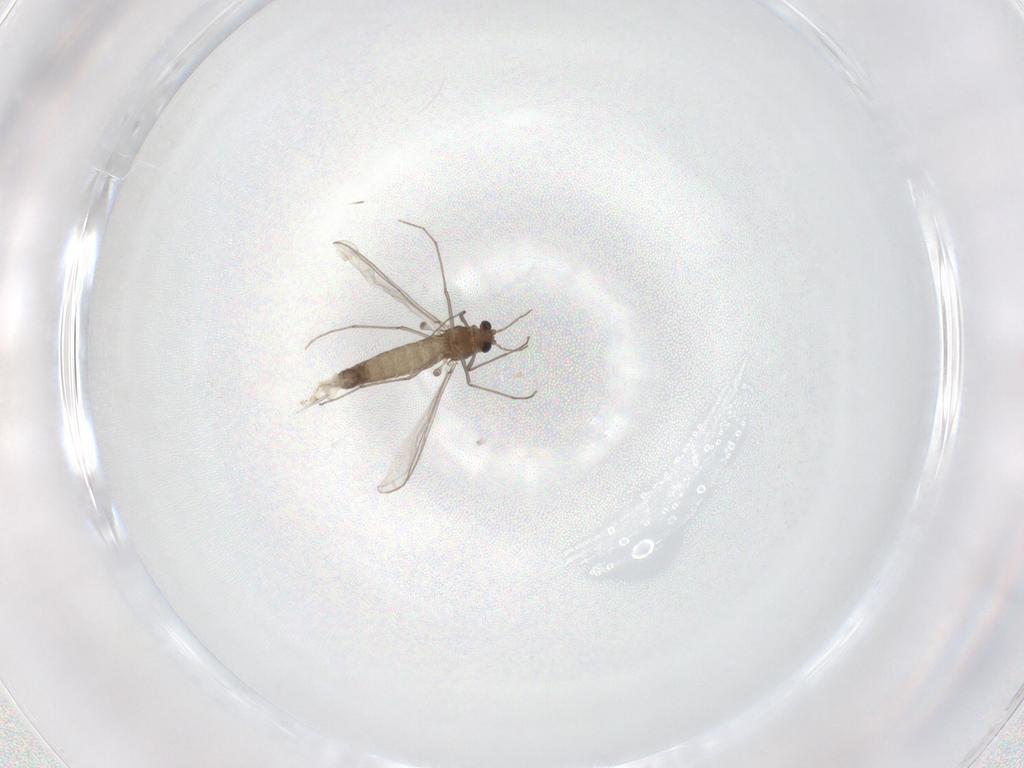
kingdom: Animalia
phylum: Arthropoda
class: Insecta
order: Diptera
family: Chironomidae
